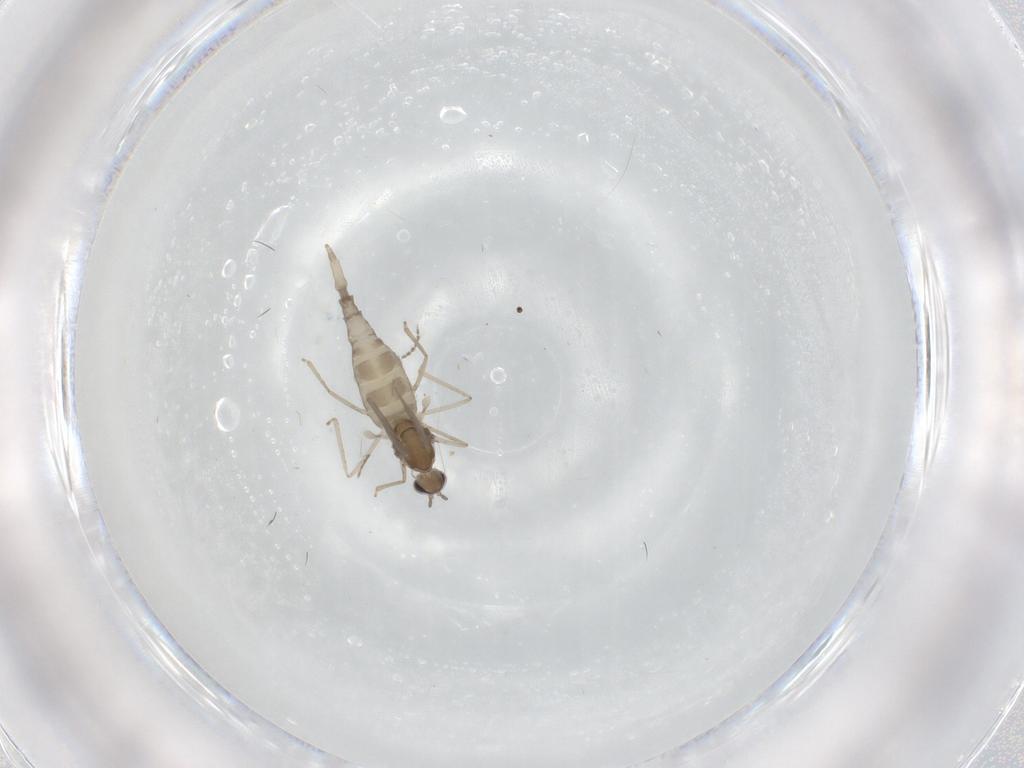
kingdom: Animalia
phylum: Arthropoda
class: Insecta
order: Diptera
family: Cecidomyiidae
